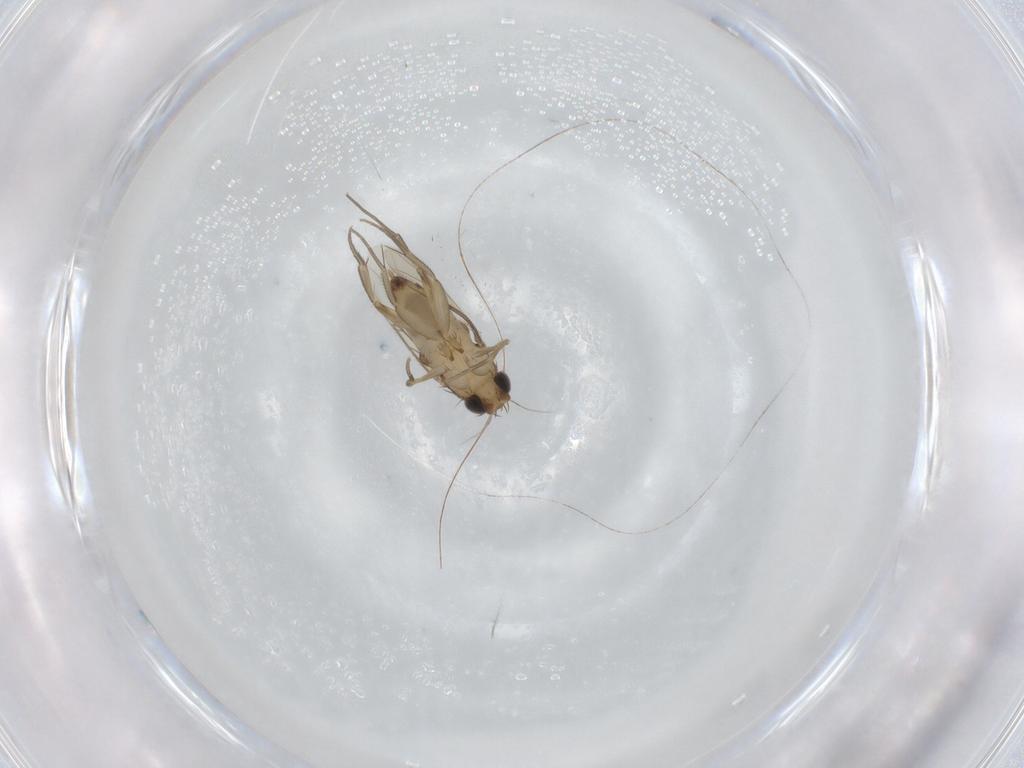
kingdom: Animalia
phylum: Arthropoda
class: Insecta
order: Diptera
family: Phoridae
